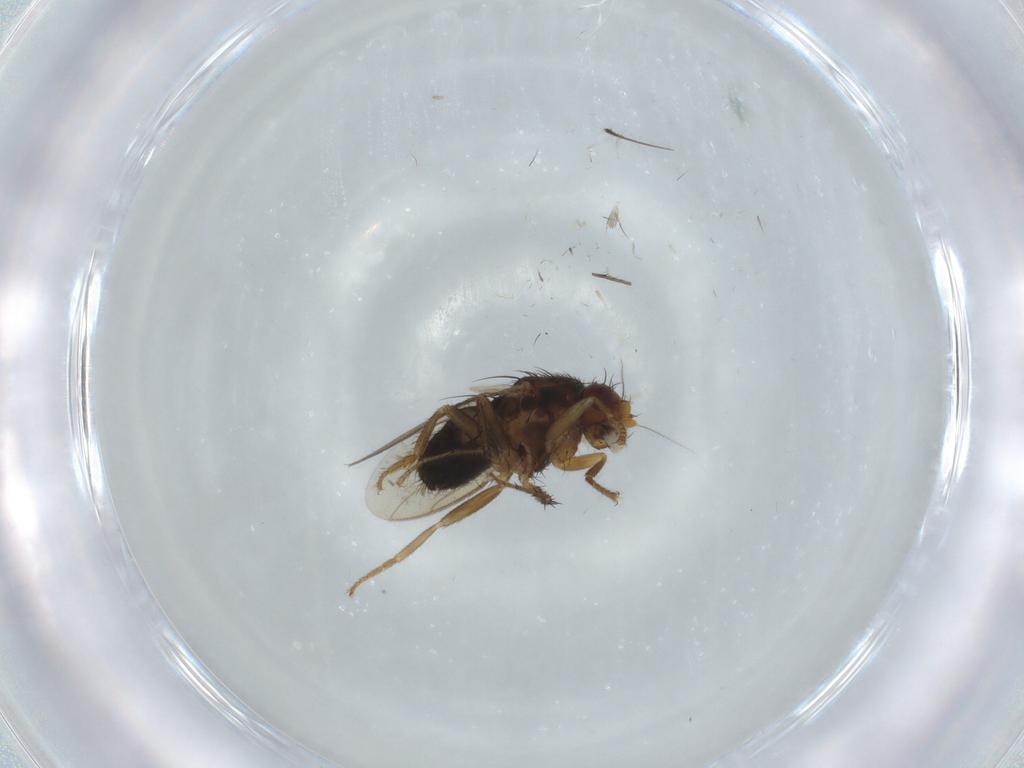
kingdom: Animalia
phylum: Arthropoda
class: Insecta
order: Diptera
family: Sphaeroceridae
